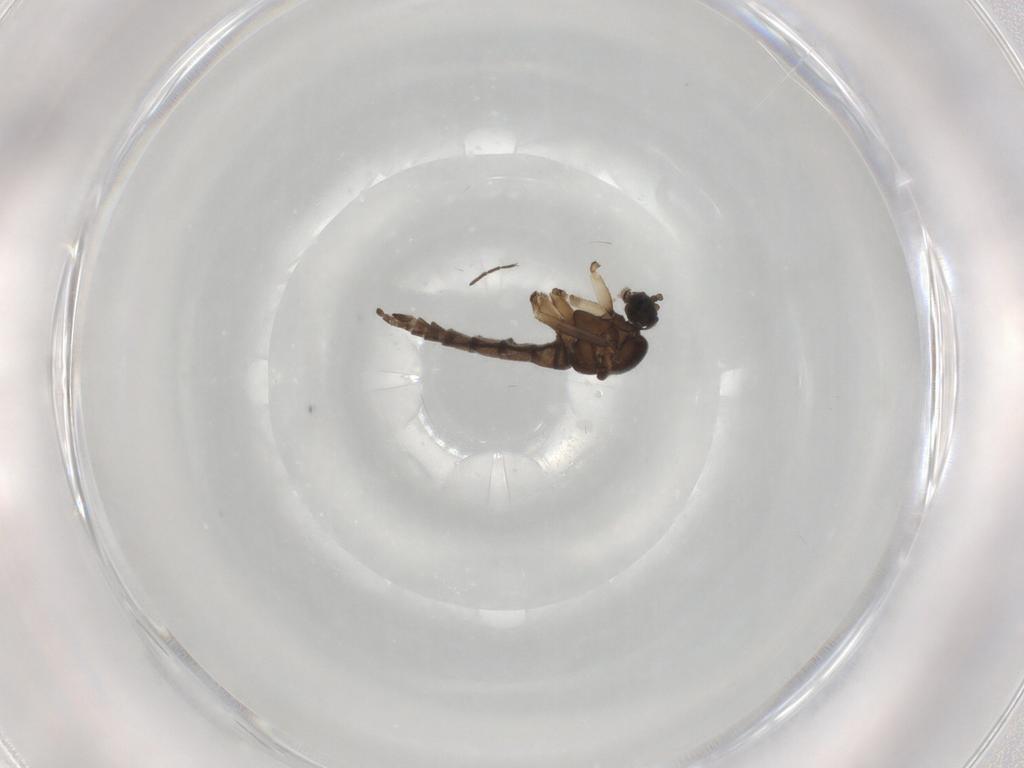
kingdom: Animalia
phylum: Arthropoda
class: Insecta
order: Diptera
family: Sciaridae
